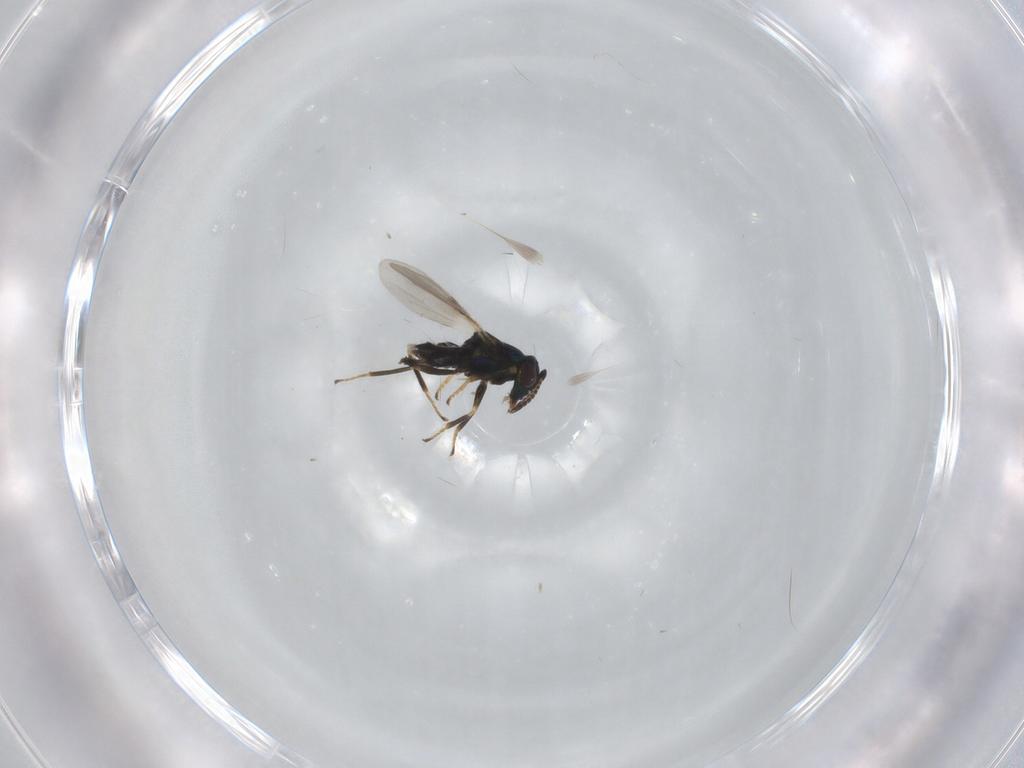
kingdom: Animalia
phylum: Arthropoda
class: Insecta
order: Hymenoptera
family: Encyrtidae
